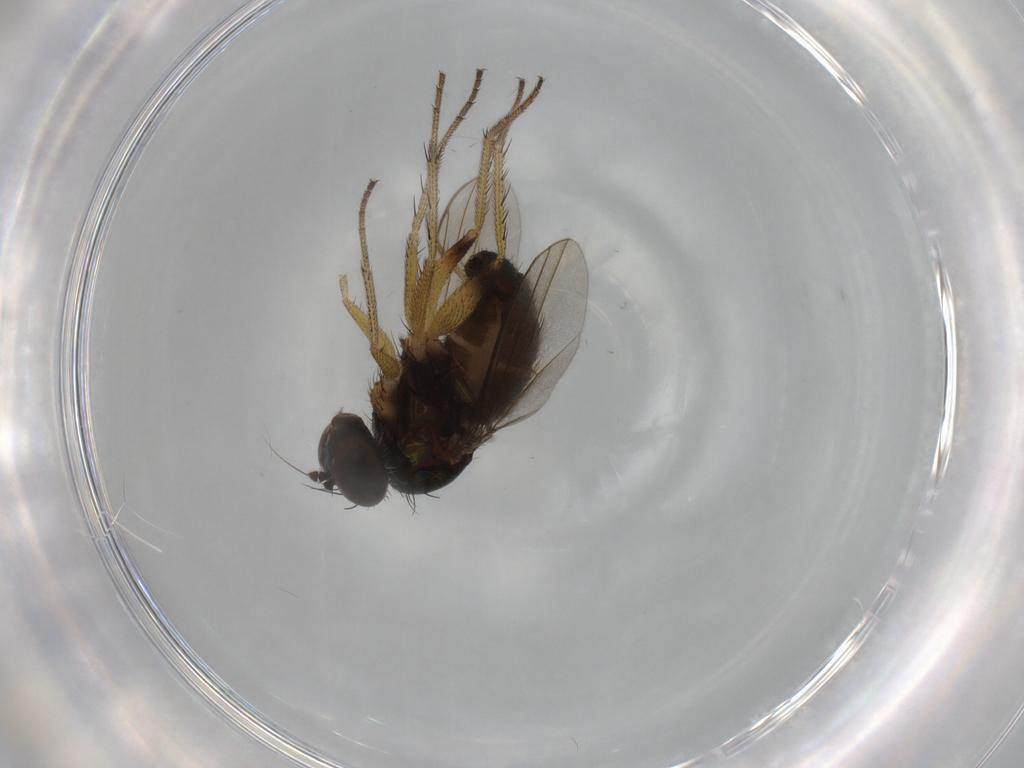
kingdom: Animalia
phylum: Arthropoda
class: Insecta
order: Diptera
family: Dolichopodidae
